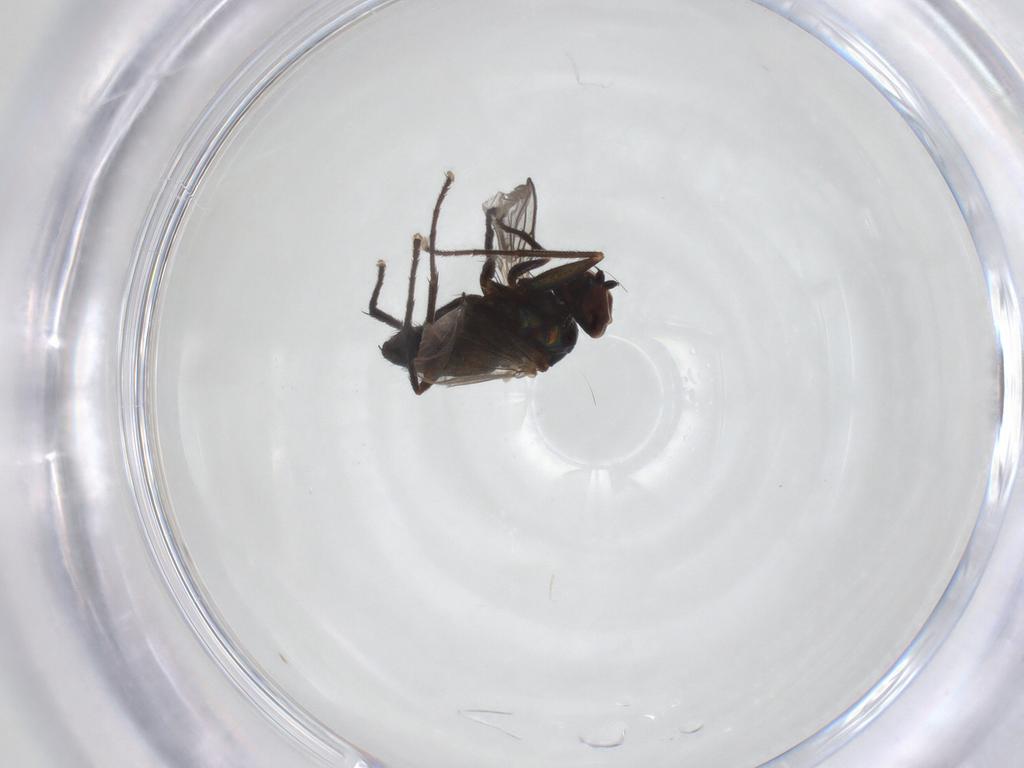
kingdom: Animalia
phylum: Arthropoda
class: Insecta
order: Diptera
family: Dolichopodidae
